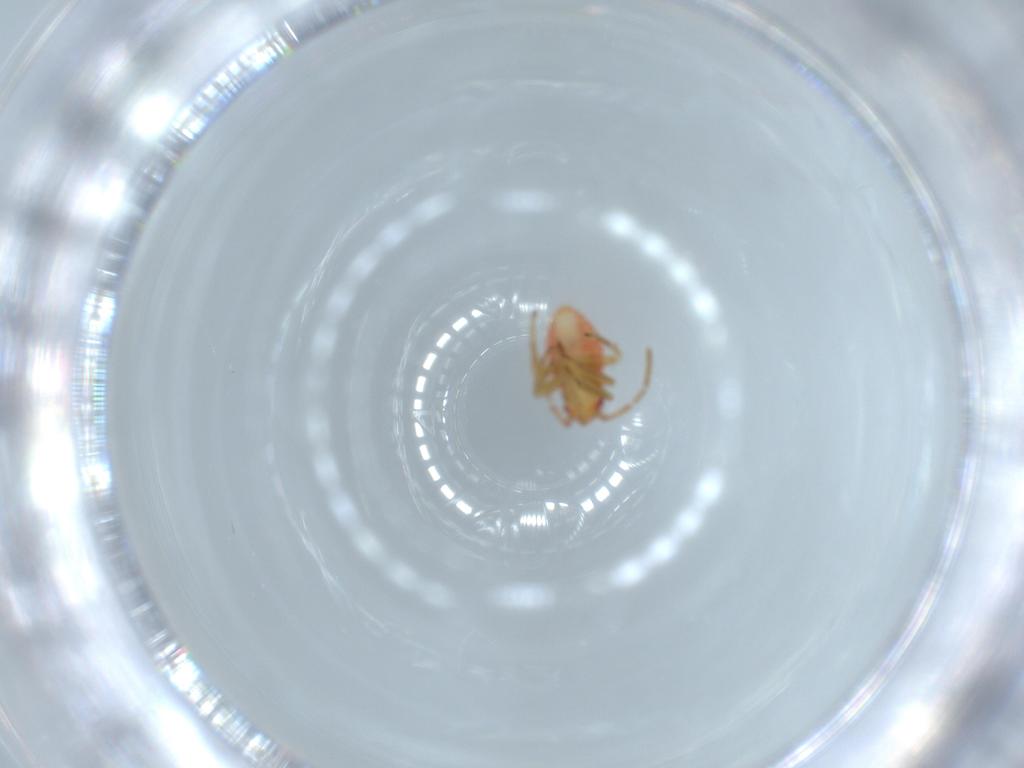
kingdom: Animalia
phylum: Arthropoda
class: Insecta
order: Hemiptera
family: Miridae
